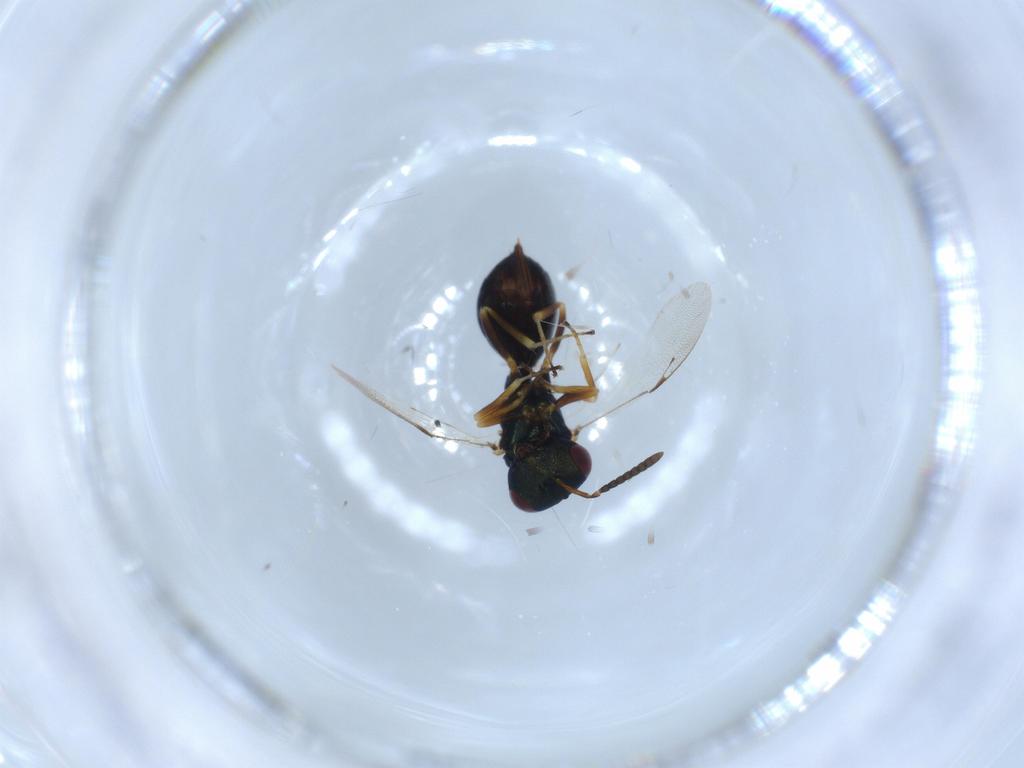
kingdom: Animalia
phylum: Arthropoda
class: Insecta
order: Hymenoptera
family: Pteromalidae
